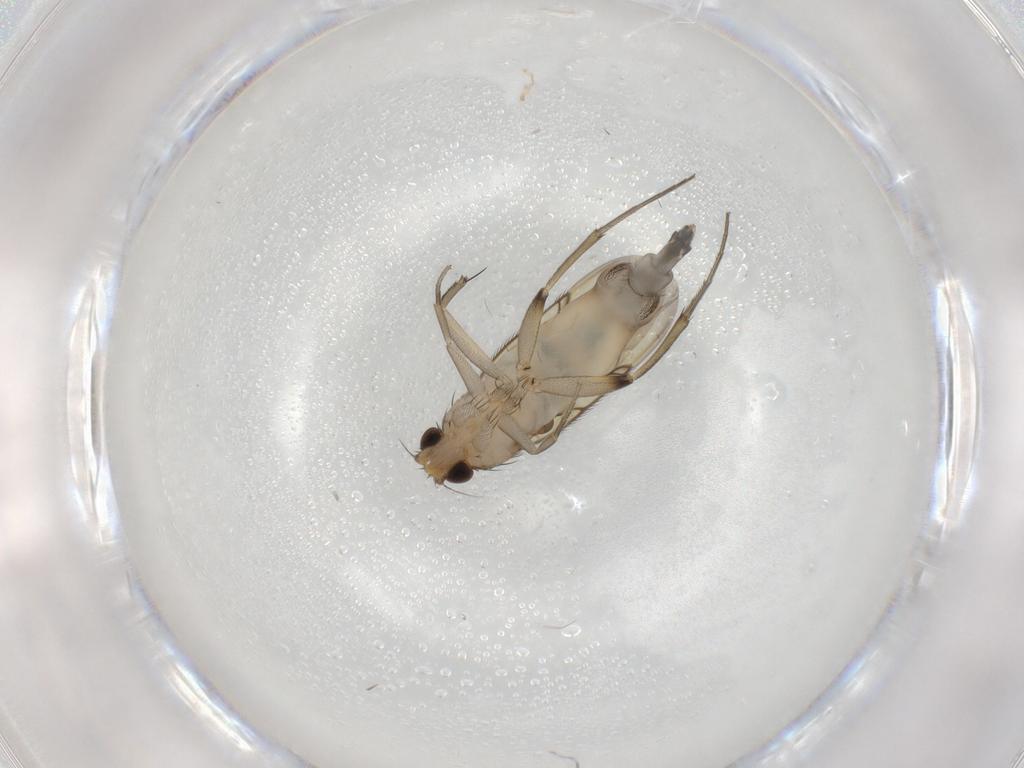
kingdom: Animalia
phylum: Arthropoda
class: Insecta
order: Diptera
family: Phoridae
